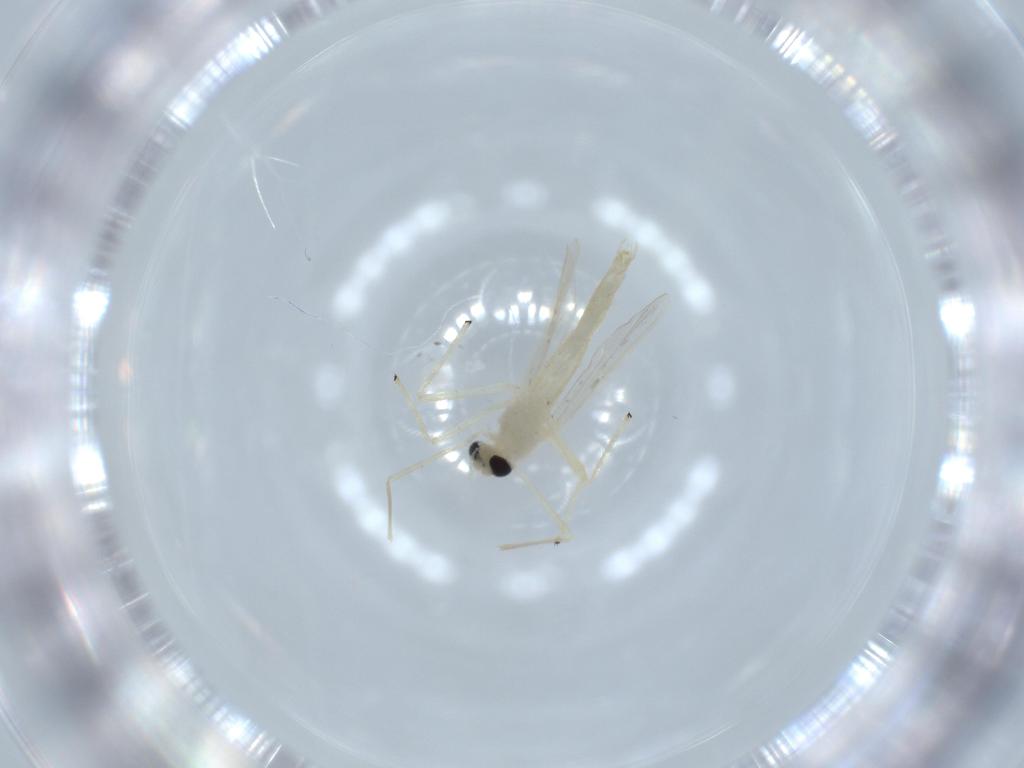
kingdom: Animalia
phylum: Arthropoda
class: Insecta
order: Diptera
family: Chironomidae
